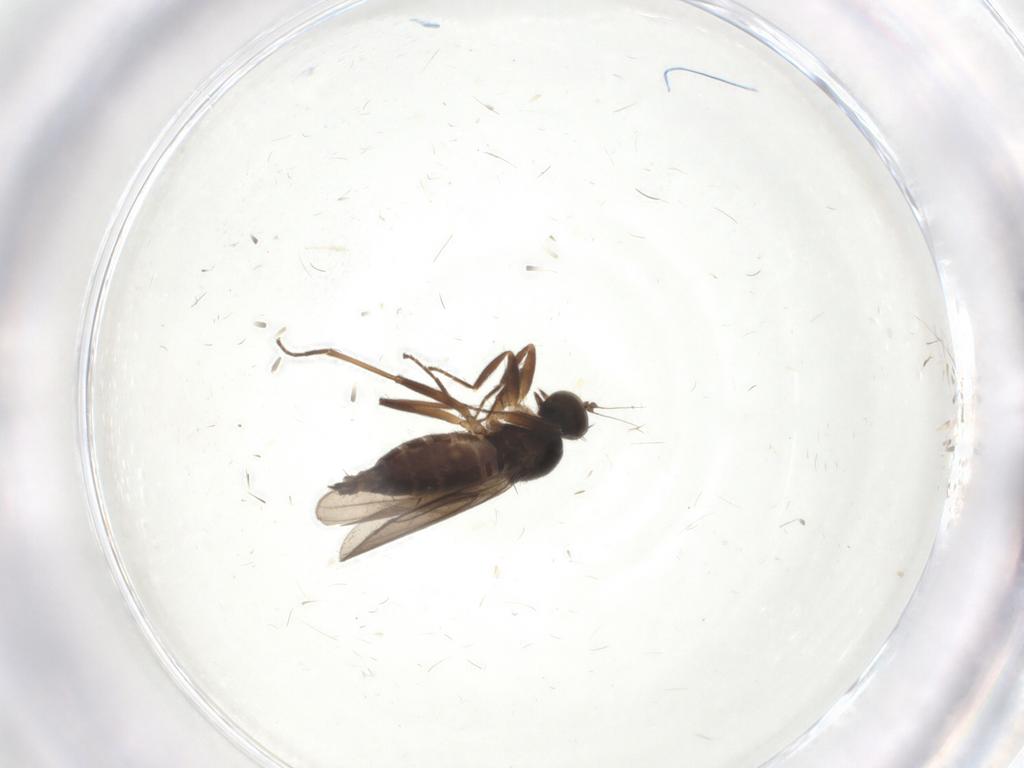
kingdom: Animalia
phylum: Arthropoda
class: Insecta
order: Diptera
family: Hybotidae
